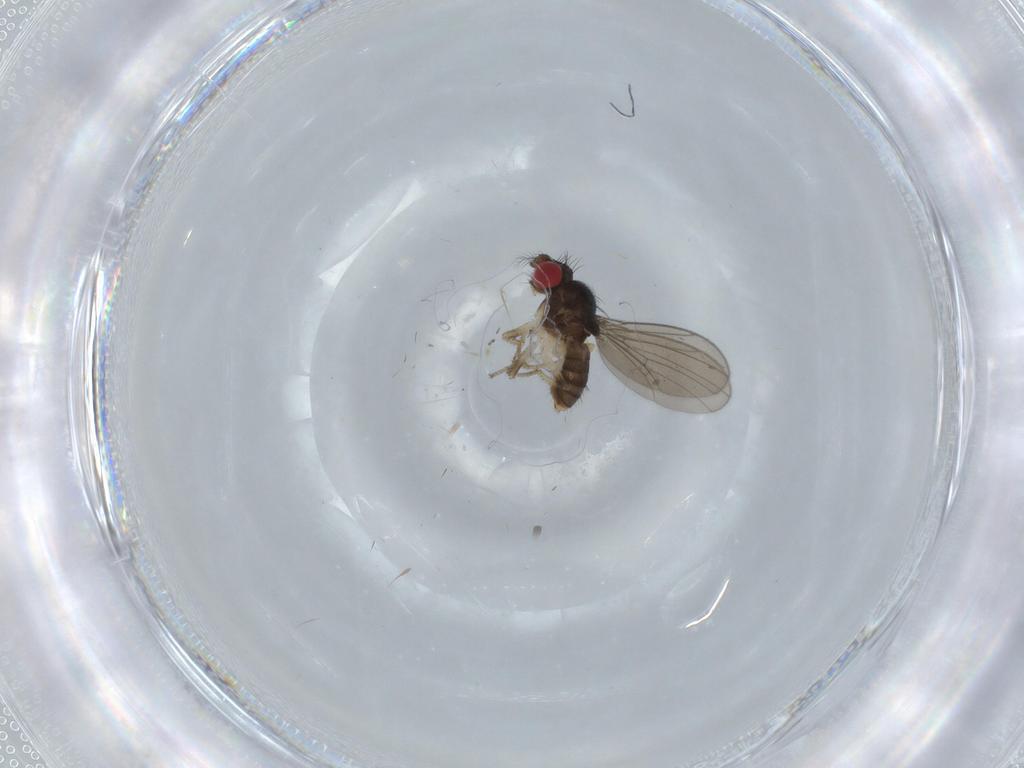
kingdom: Animalia
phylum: Arthropoda
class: Insecta
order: Diptera
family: Drosophilidae
